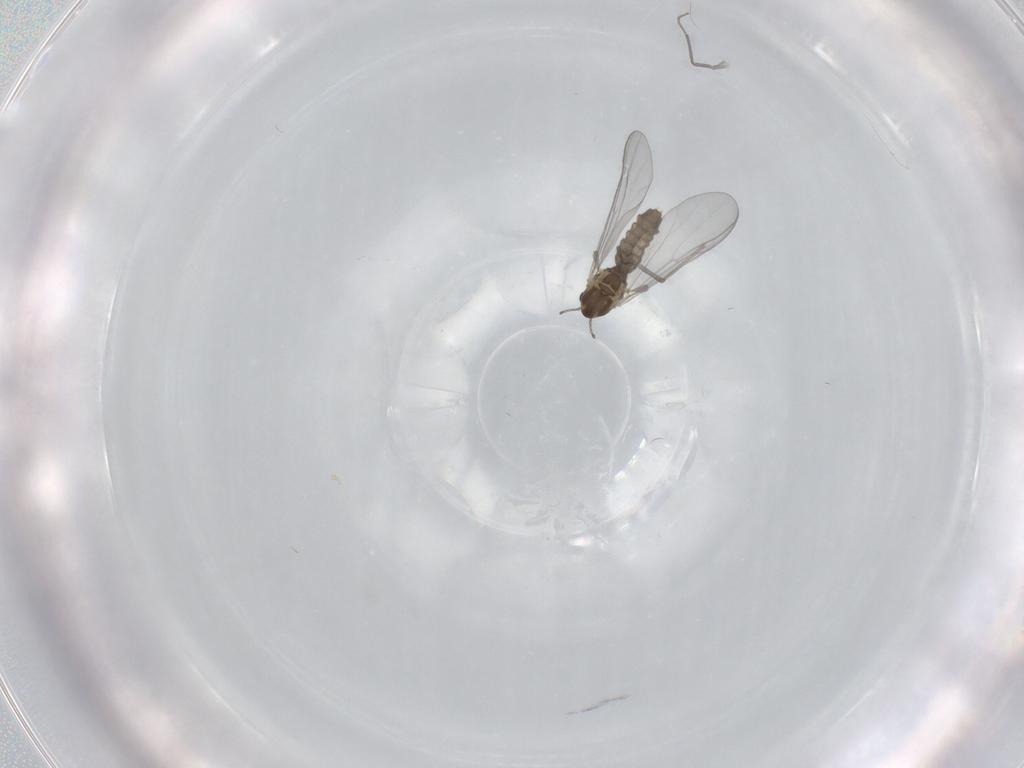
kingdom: Animalia
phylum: Arthropoda
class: Insecta
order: Diptera
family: Chironomidae
